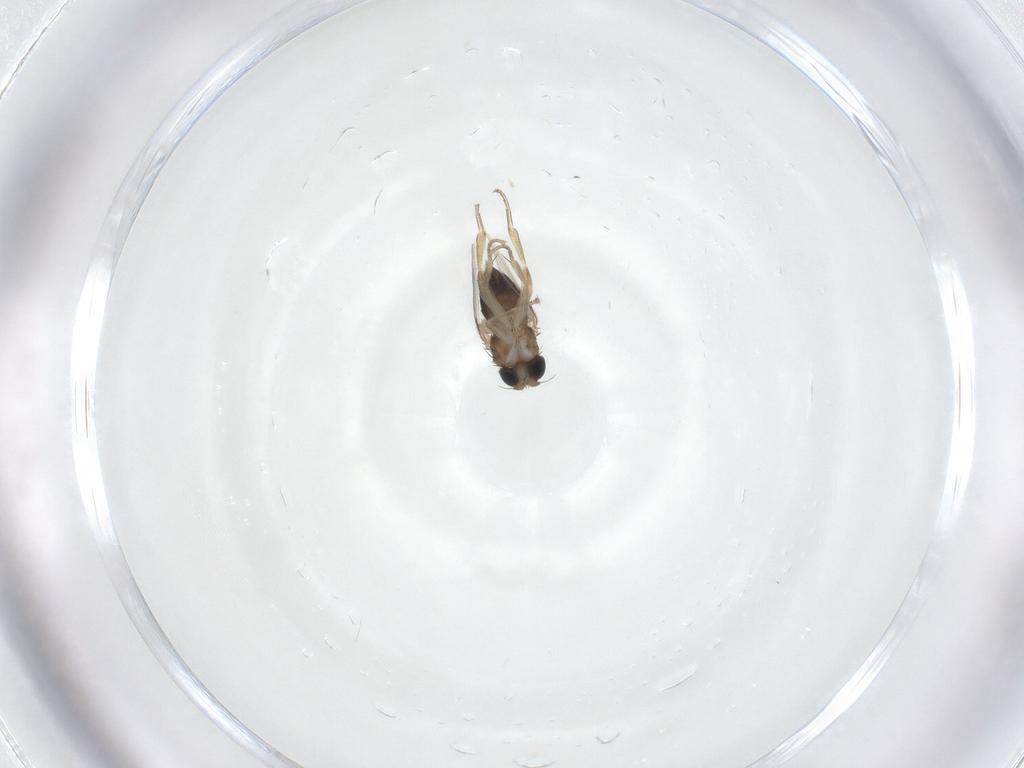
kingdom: Animalia
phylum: Arthropoda
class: Insecta
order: Diptera
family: Phoridae
